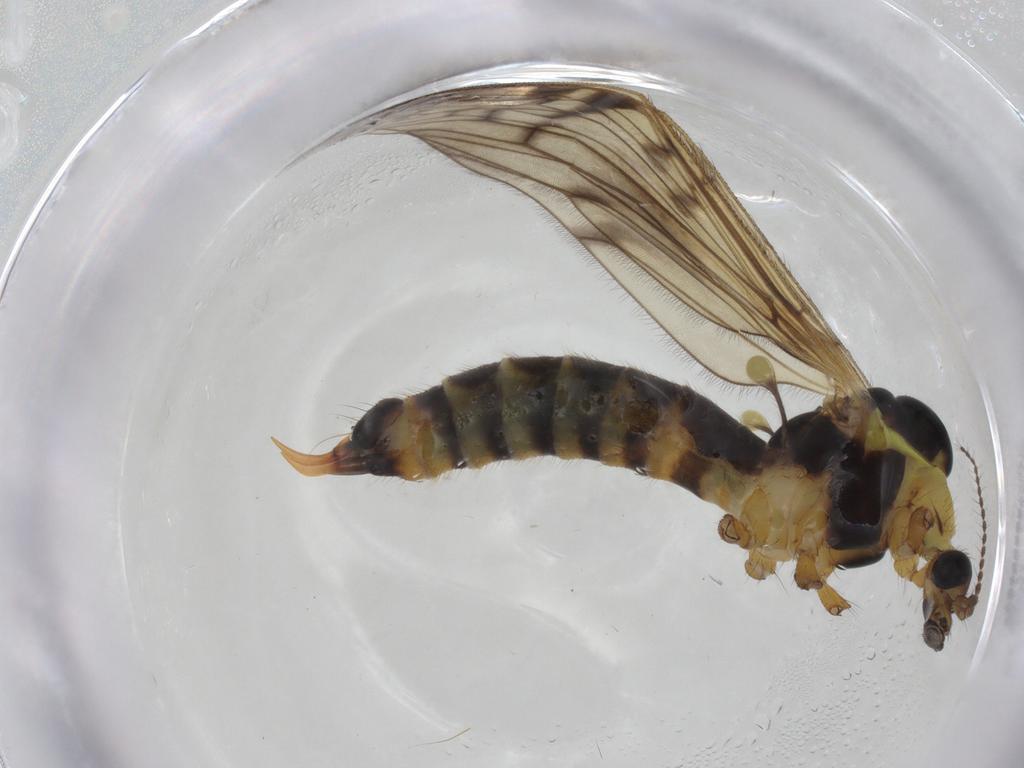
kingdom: Animalia
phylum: Arthropoda
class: Insecta
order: Diptera
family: Limoniidae
